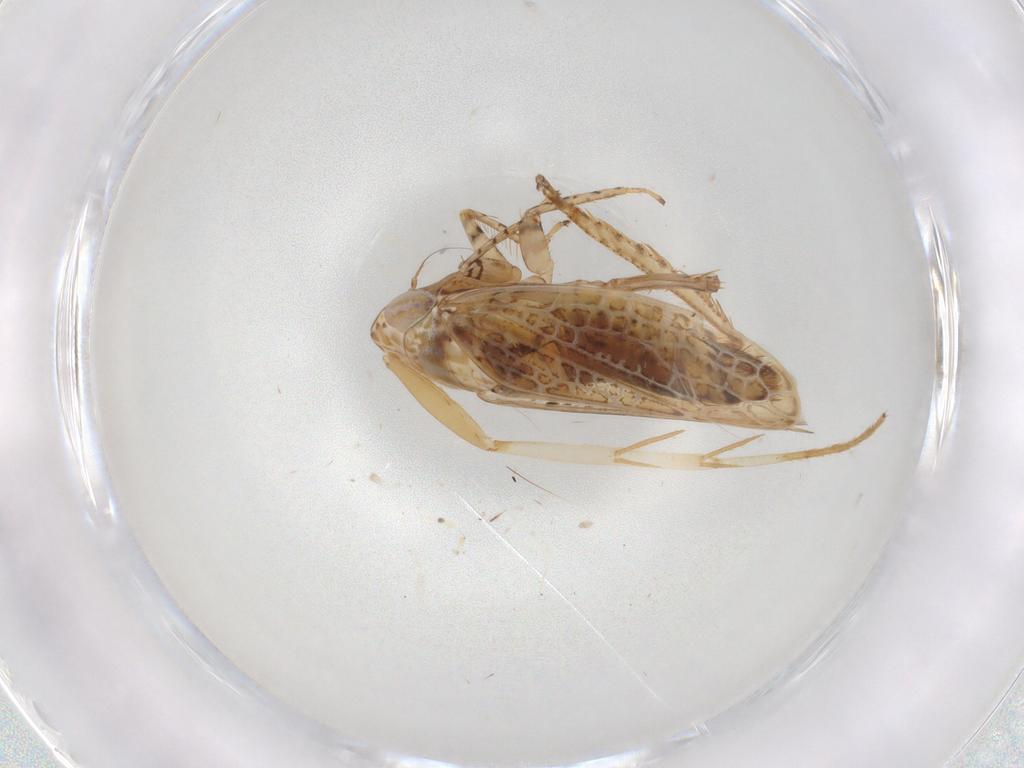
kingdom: Animalia
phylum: Arthropoda
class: Insecta
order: Hemiptera
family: Cicadellidae
